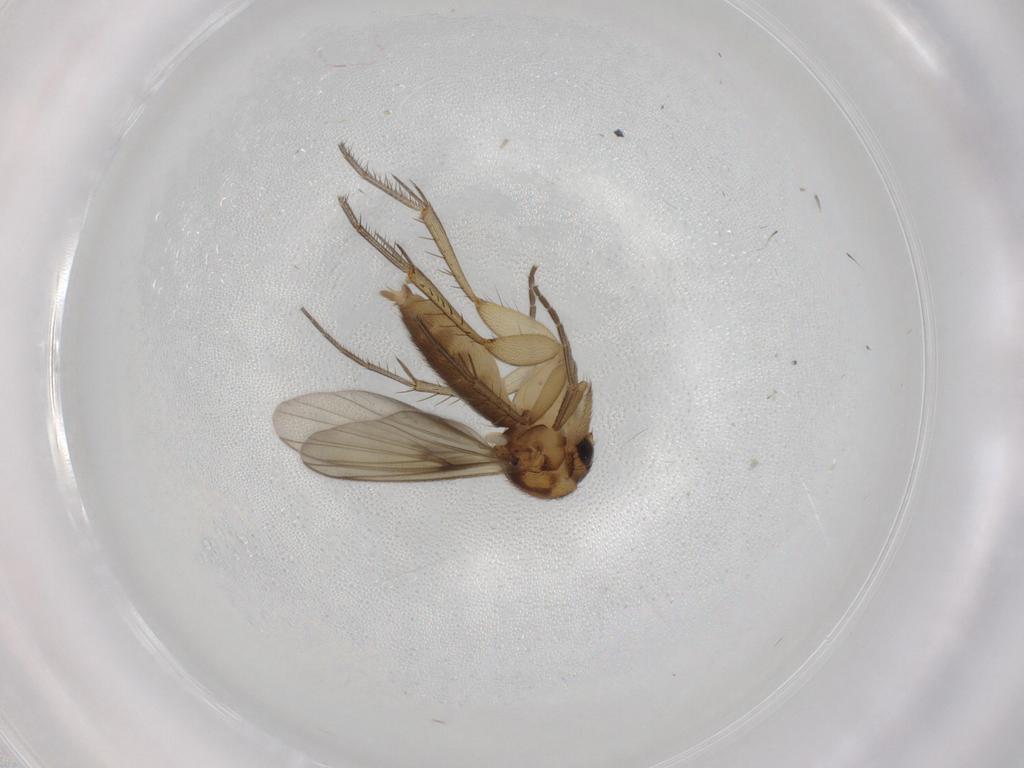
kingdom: Animalia
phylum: Arthropoda
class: Insecta
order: Diptera
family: Mycetophilidae
